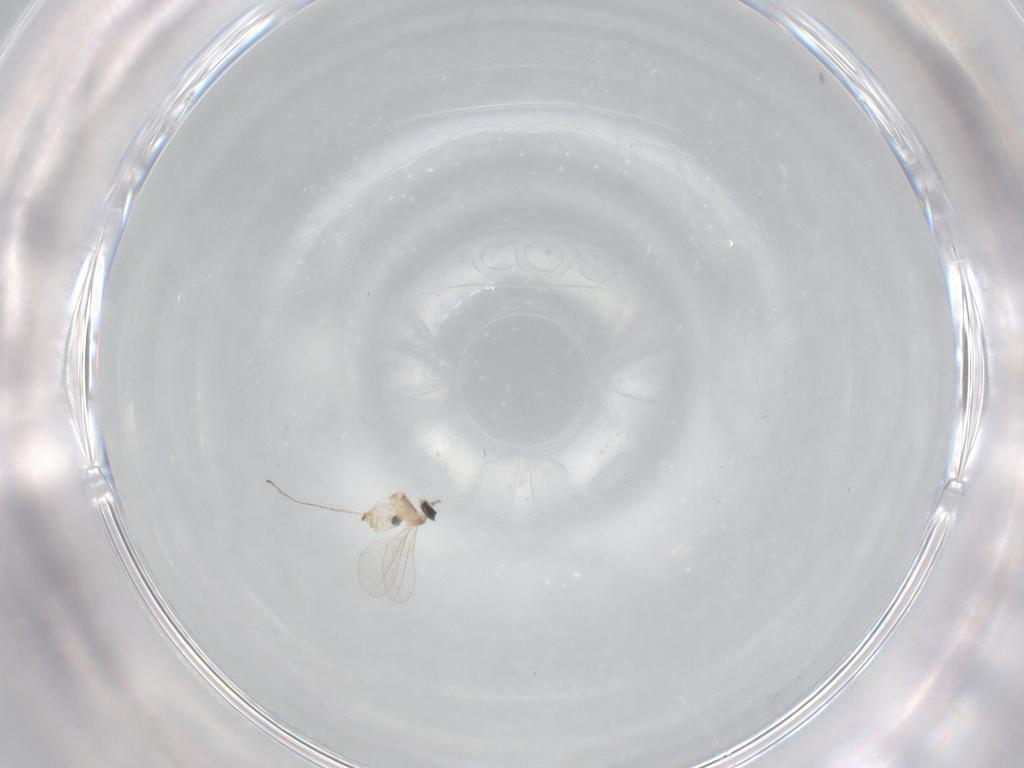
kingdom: Animalia
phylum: Arthropoda
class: Insecta
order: Diptera
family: Cecidomyiidae
